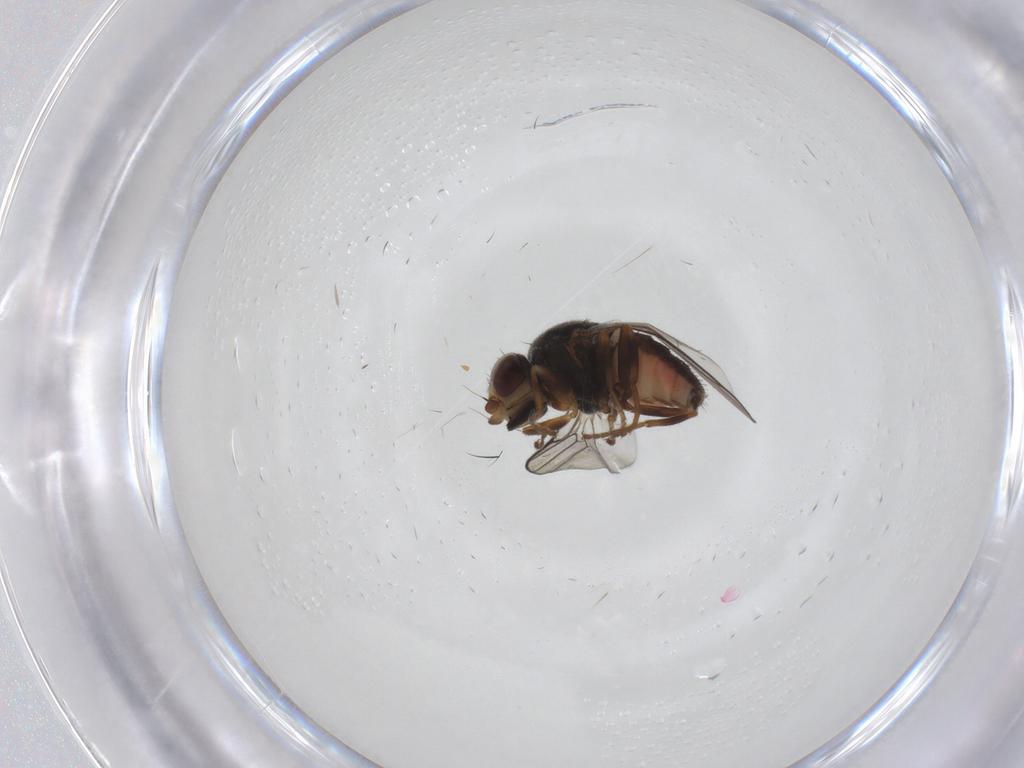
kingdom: Animalia
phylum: Arthropoda
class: Insecta
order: Diptera
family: Chloropidae
